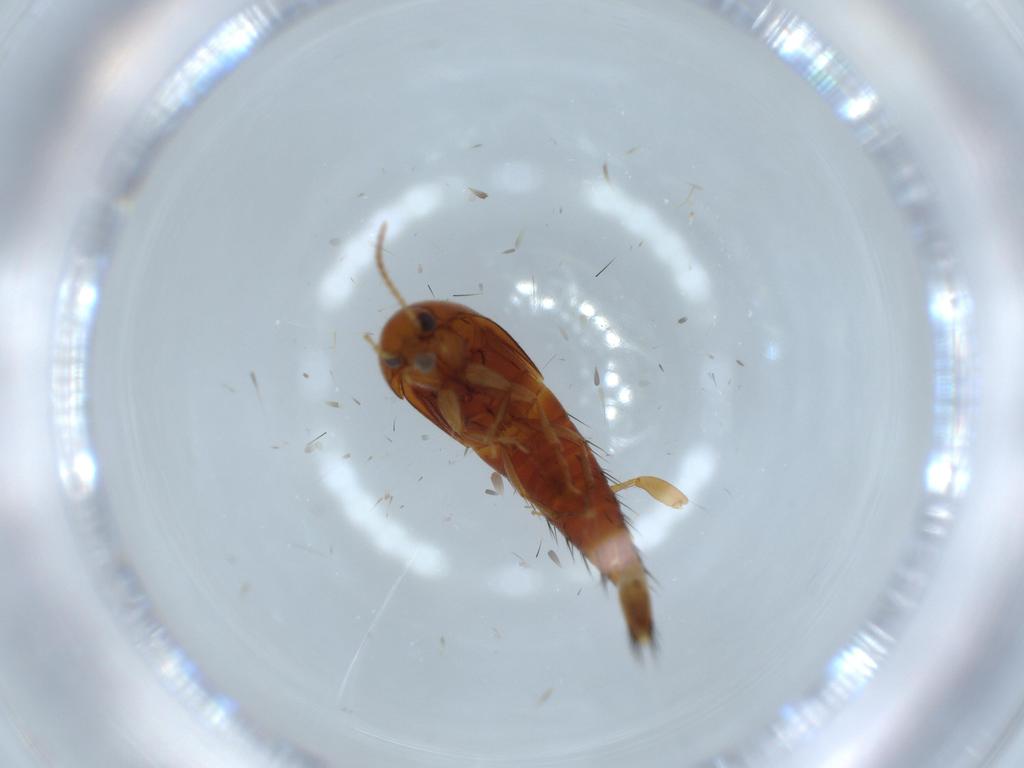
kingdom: Animalia
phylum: Arthropoda
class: Insecta
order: Coleoptera
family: Staphylinidae
